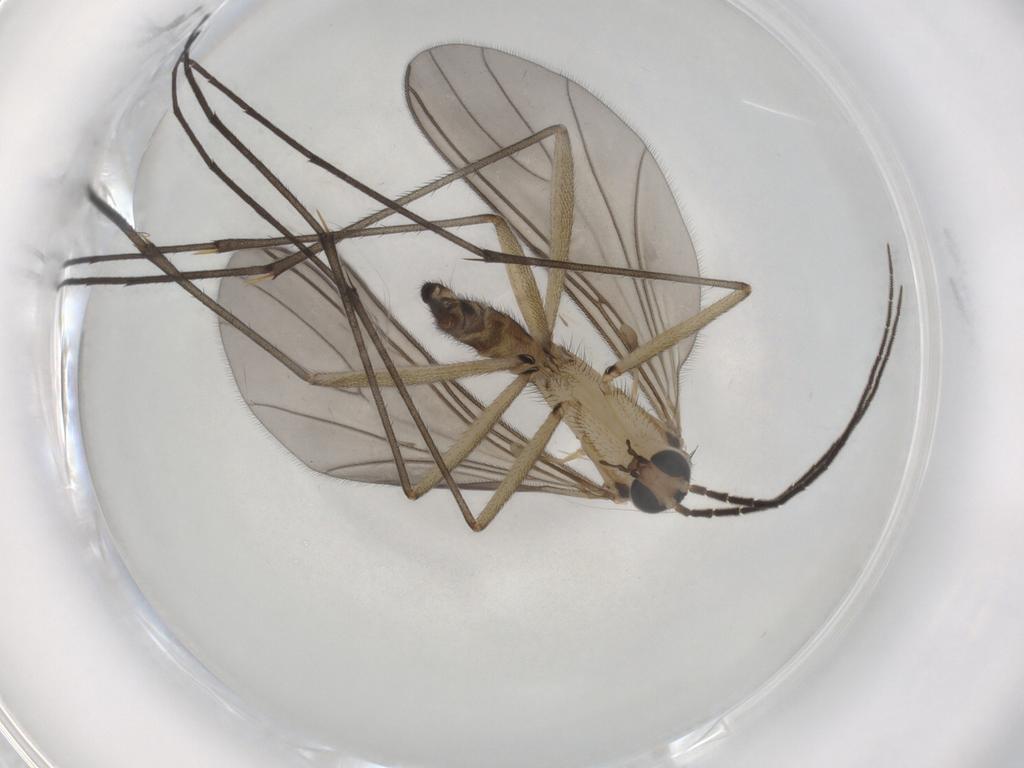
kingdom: Animalia
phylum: Arthropoda
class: Insecta
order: Diptera
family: Sciaridae
